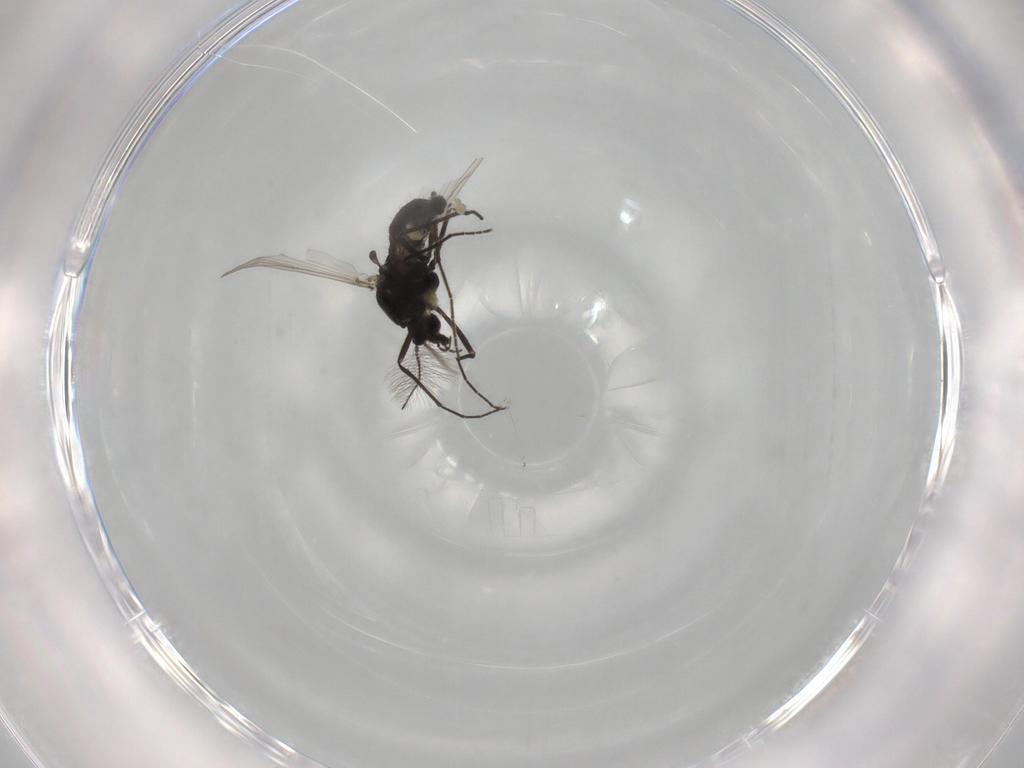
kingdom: Animalia
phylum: Arthropoda
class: Insecta
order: Diptera
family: Chironomidae
